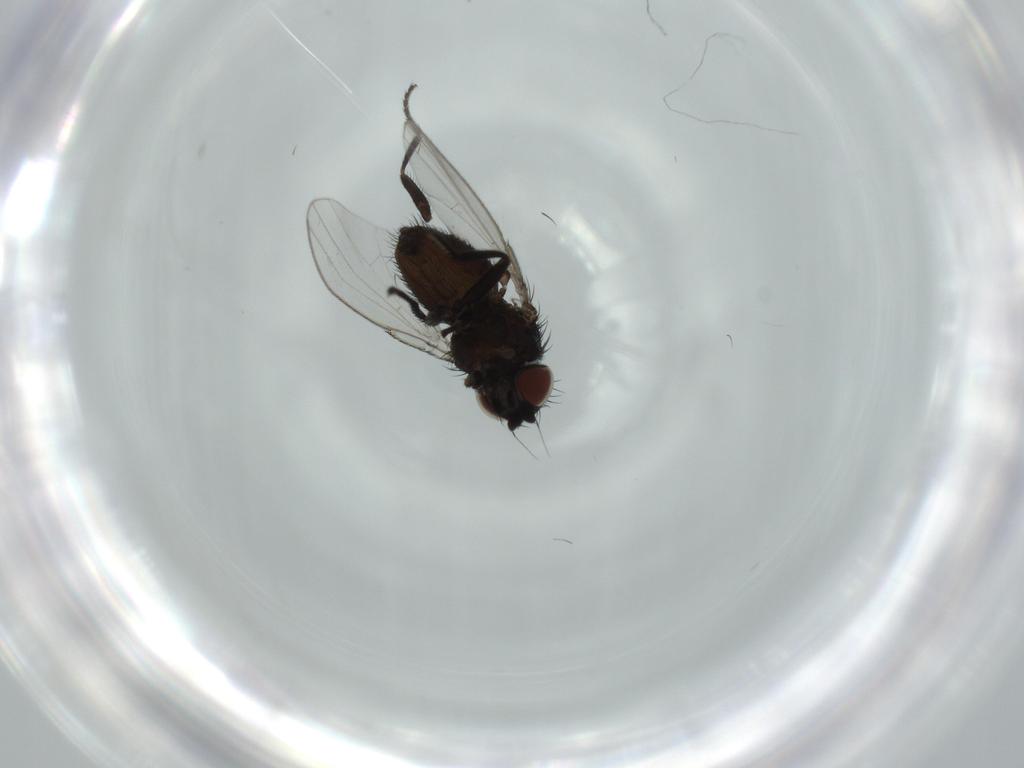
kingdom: Animalia
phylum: Arthropoda
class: Insecta
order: Diptera
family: Milichiidae
